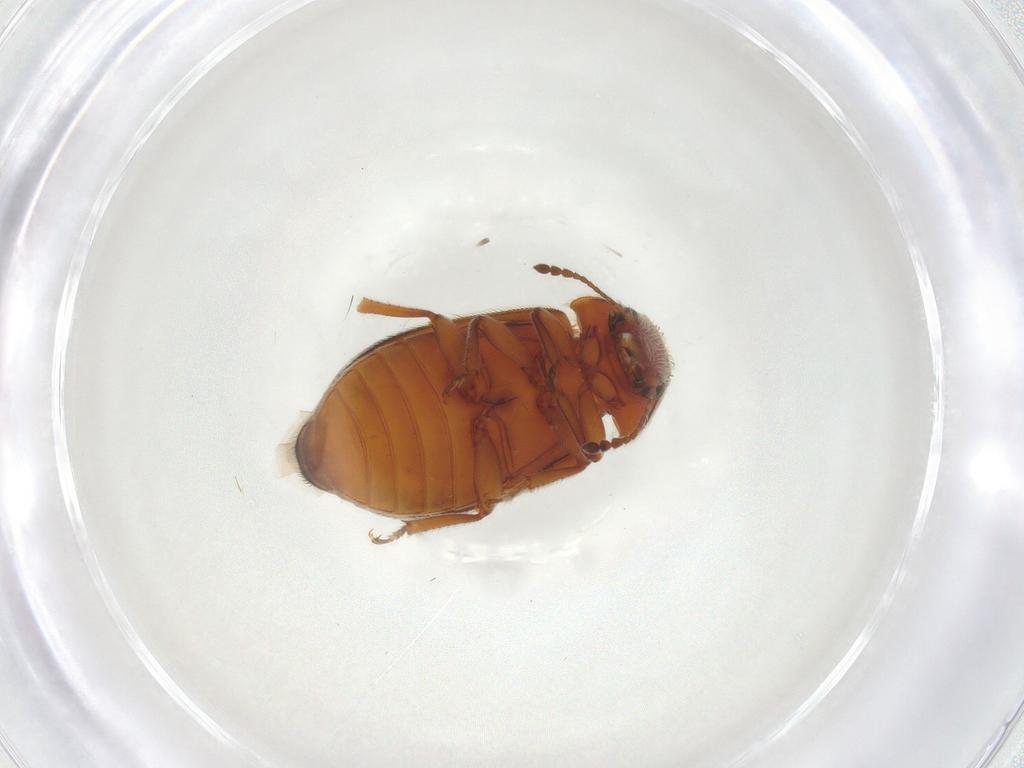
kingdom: Animalia
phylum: Arthropoda
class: Insecta
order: Coleoptera
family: Byturidae
